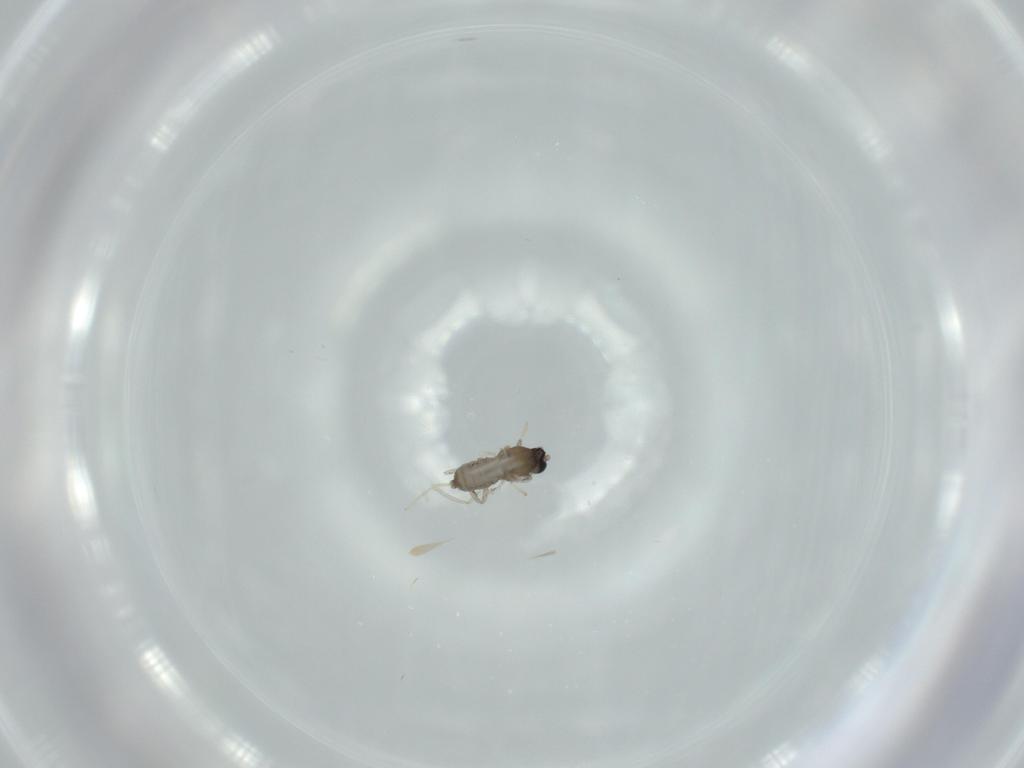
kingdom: Animalia
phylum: Arthropoda
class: Insecta
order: Diptera
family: Cecidomyiidae
